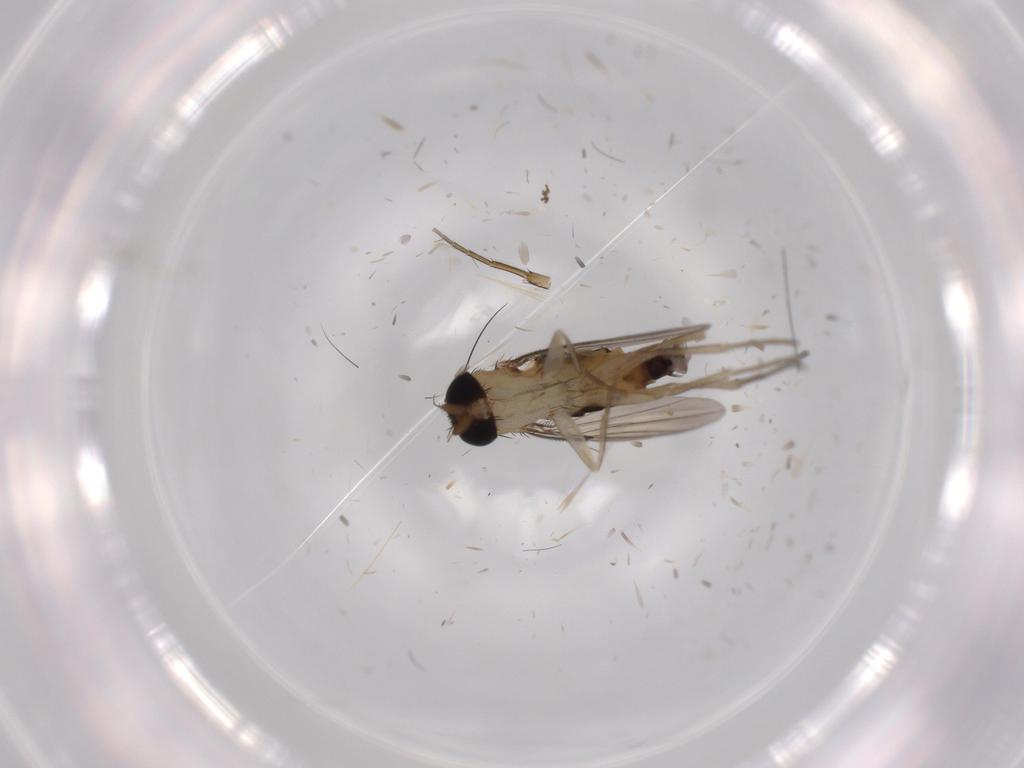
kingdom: Animalia
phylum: Arthropoda
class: Insecta
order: Diptera
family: Phoridae
